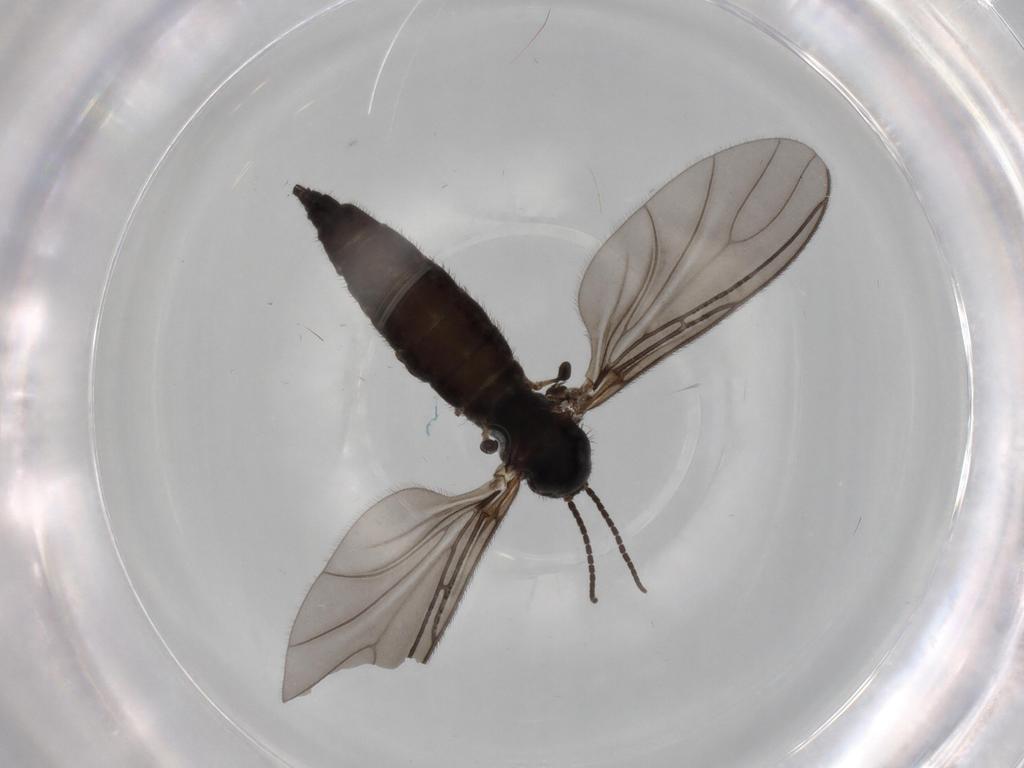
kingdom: Animalia
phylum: Arthropoda
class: Insecta
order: Diptera
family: Sciaridae
